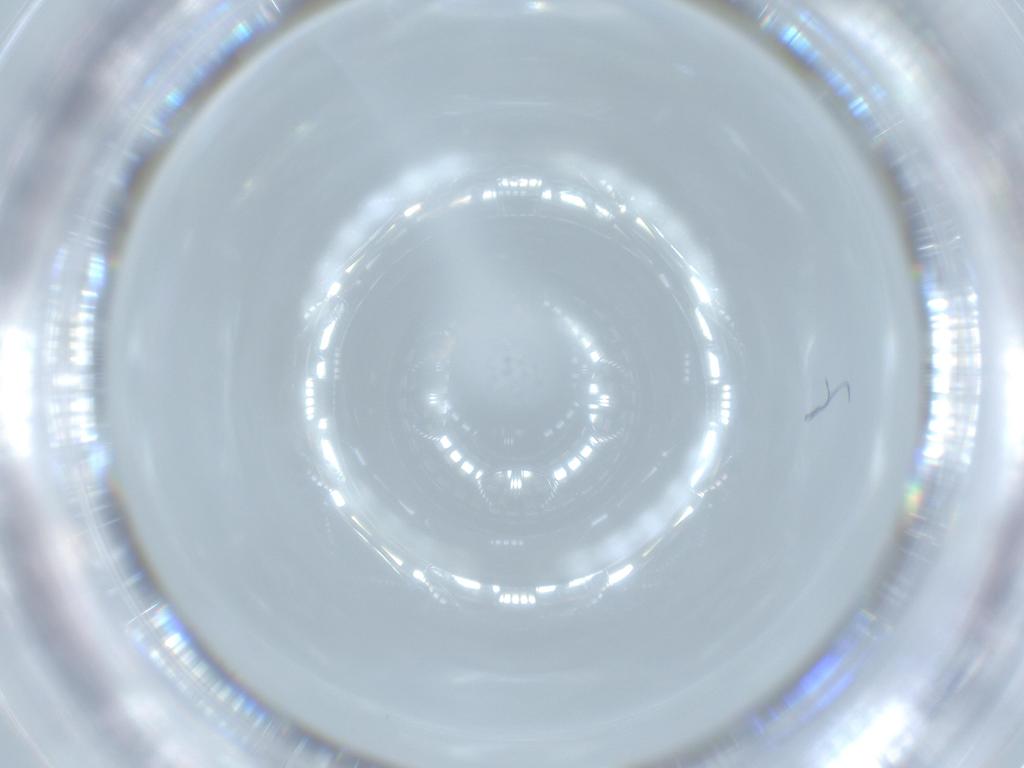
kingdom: Animalia
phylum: Arthropoda
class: Insecta
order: Diptera
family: Chironomidae
